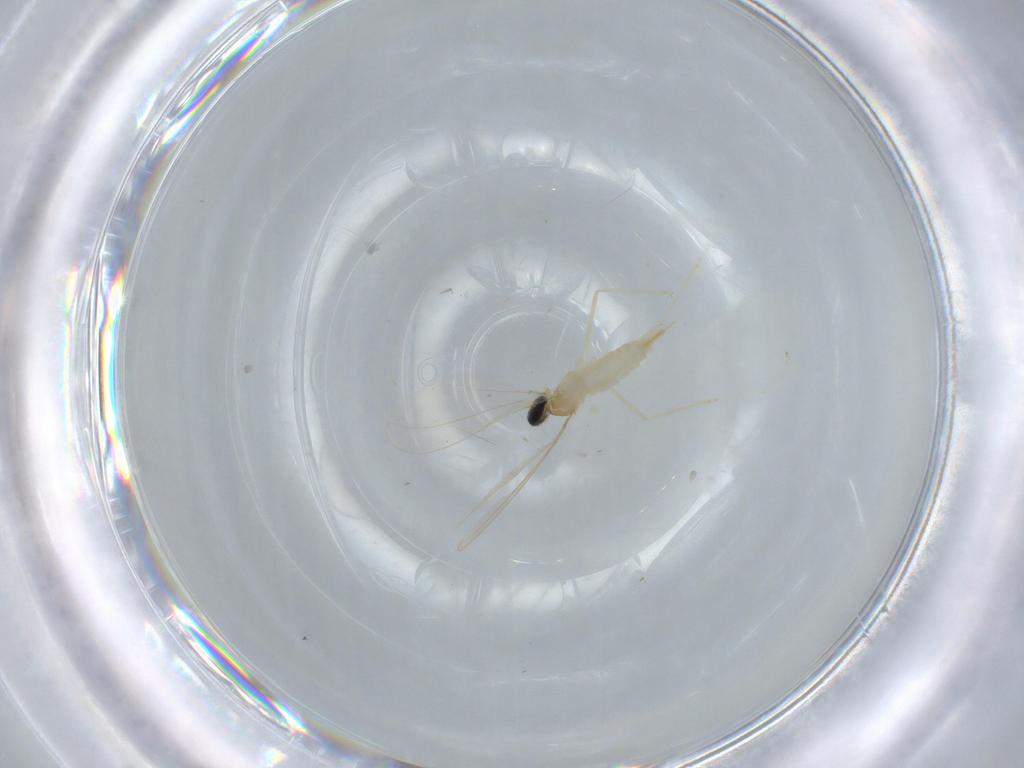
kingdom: Animalia
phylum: Arthropoda
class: Insecta
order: Diptera
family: Cecidomyiidae
